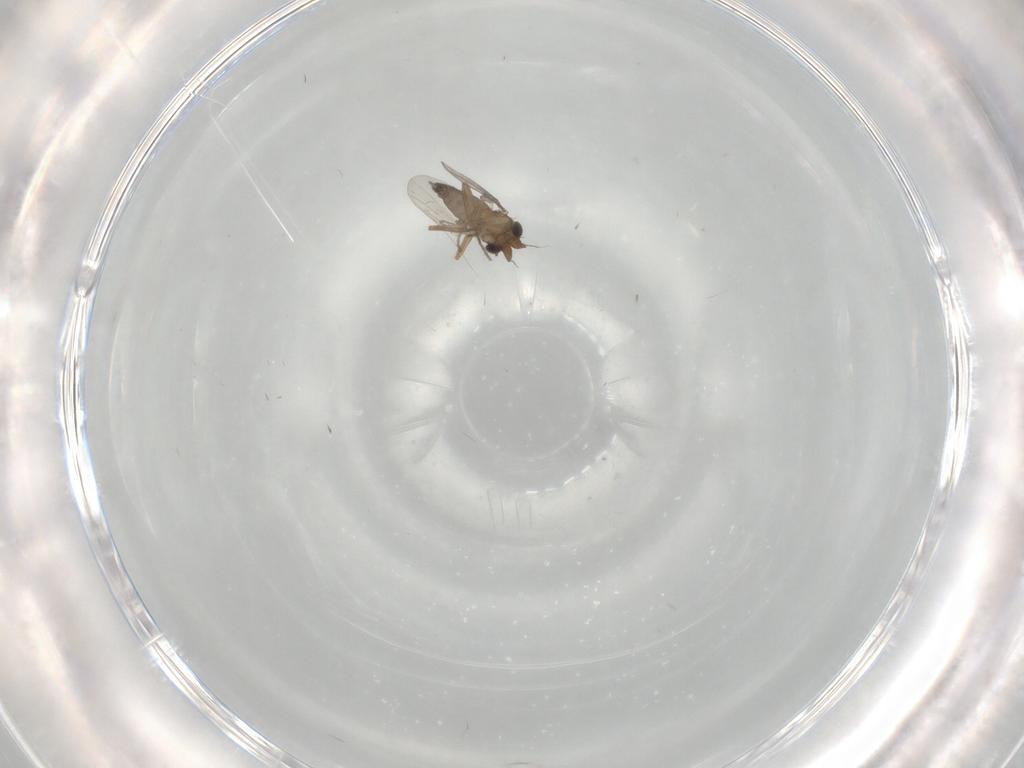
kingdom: Animalia
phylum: Arthropoda
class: Insecta
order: Diptera
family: Phoridae
